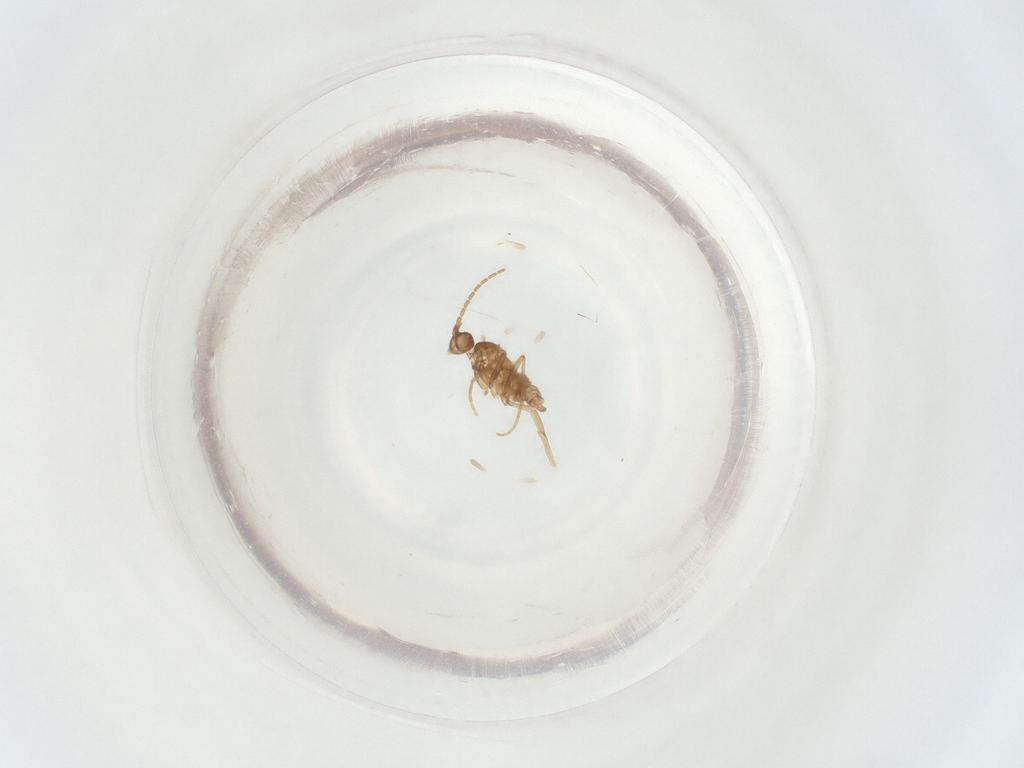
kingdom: Animalia
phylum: Arthropoda
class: Insecta
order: Diptera
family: Sciaridae
